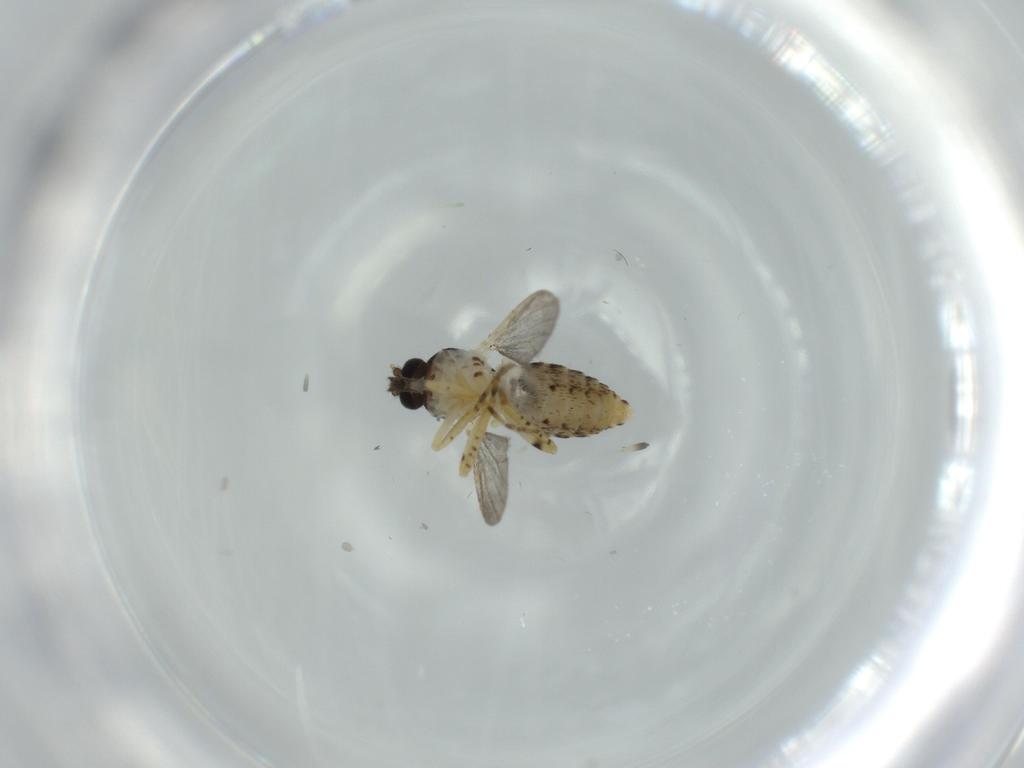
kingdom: Animalia
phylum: Arthropoda
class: Insecta
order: Diptera
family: Ceratopogonidae
